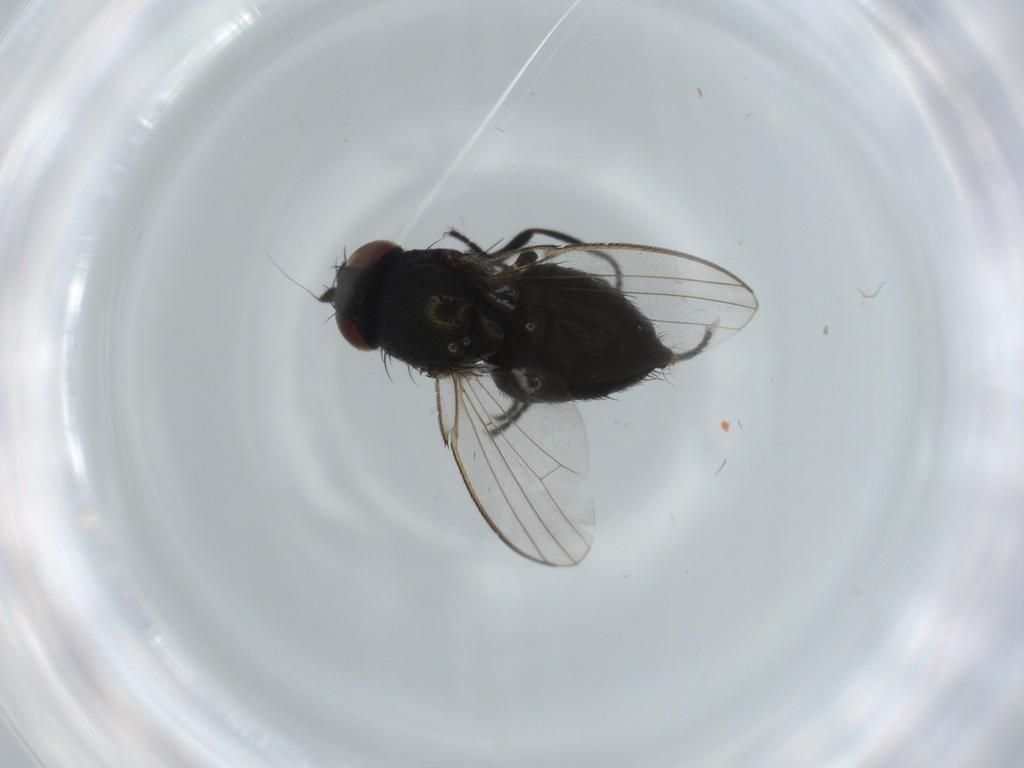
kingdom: Animalia
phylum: Arthropoda
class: Insecta
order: Diptera
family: Milichiidae
